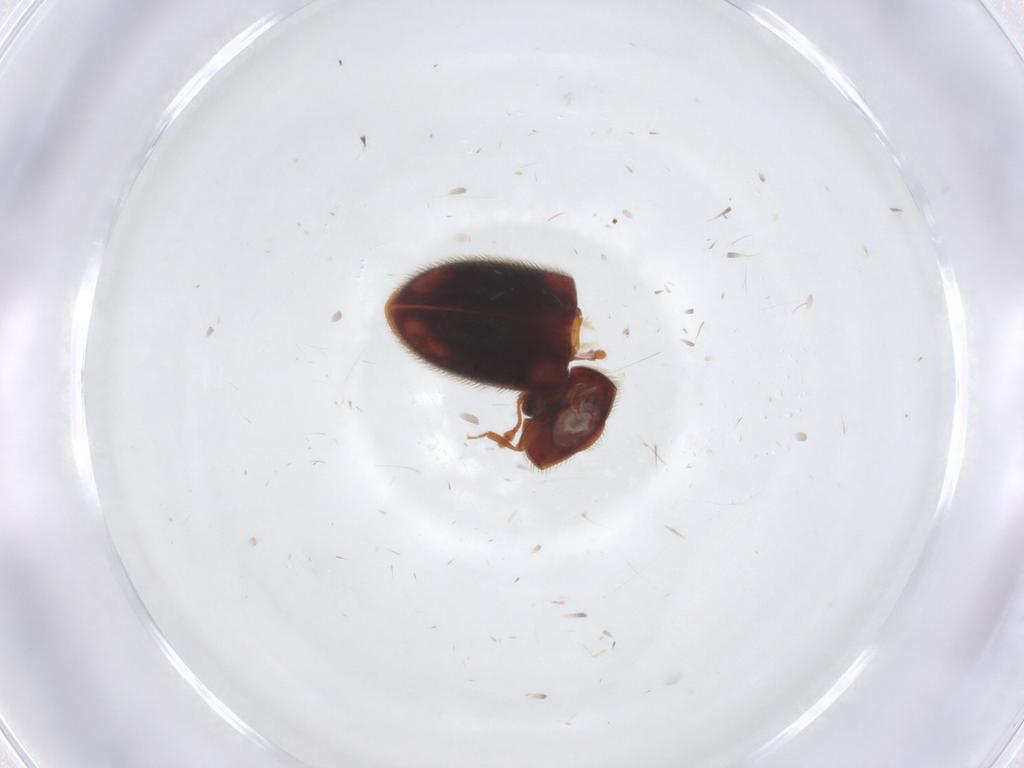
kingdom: Animalia
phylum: Arthropoda
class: Insecta
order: Coleoptera
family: Biphyllidae
